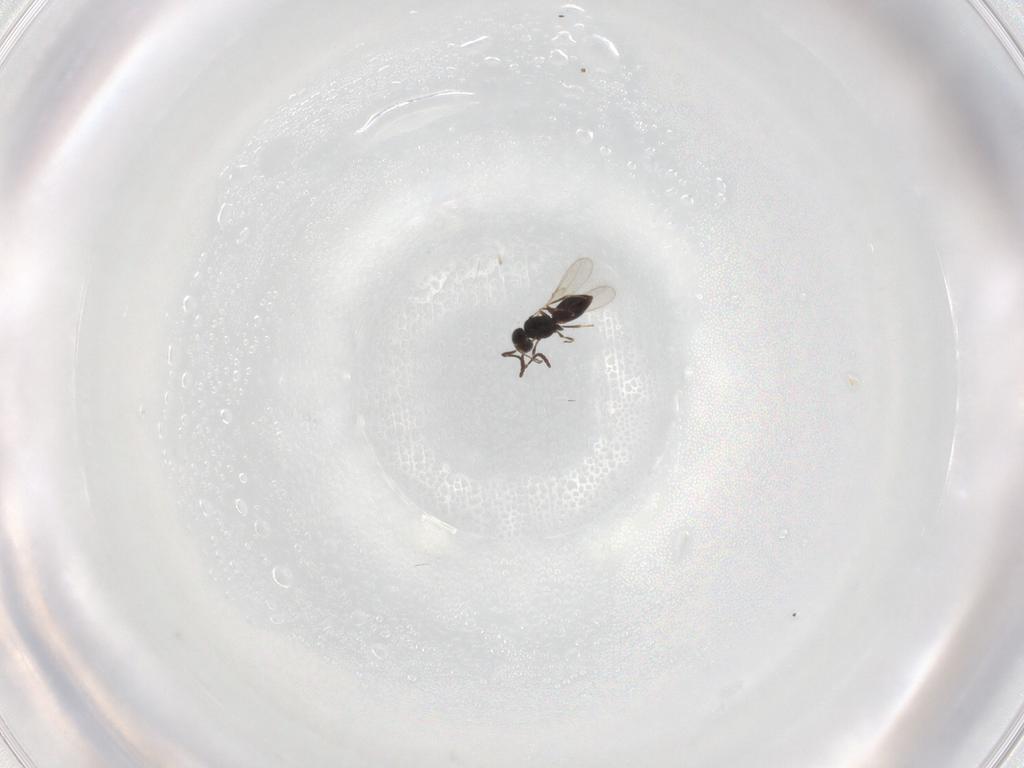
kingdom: Animalia
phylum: Arthropoda
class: Insecta
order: Hymenoptera
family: Scelionidae
